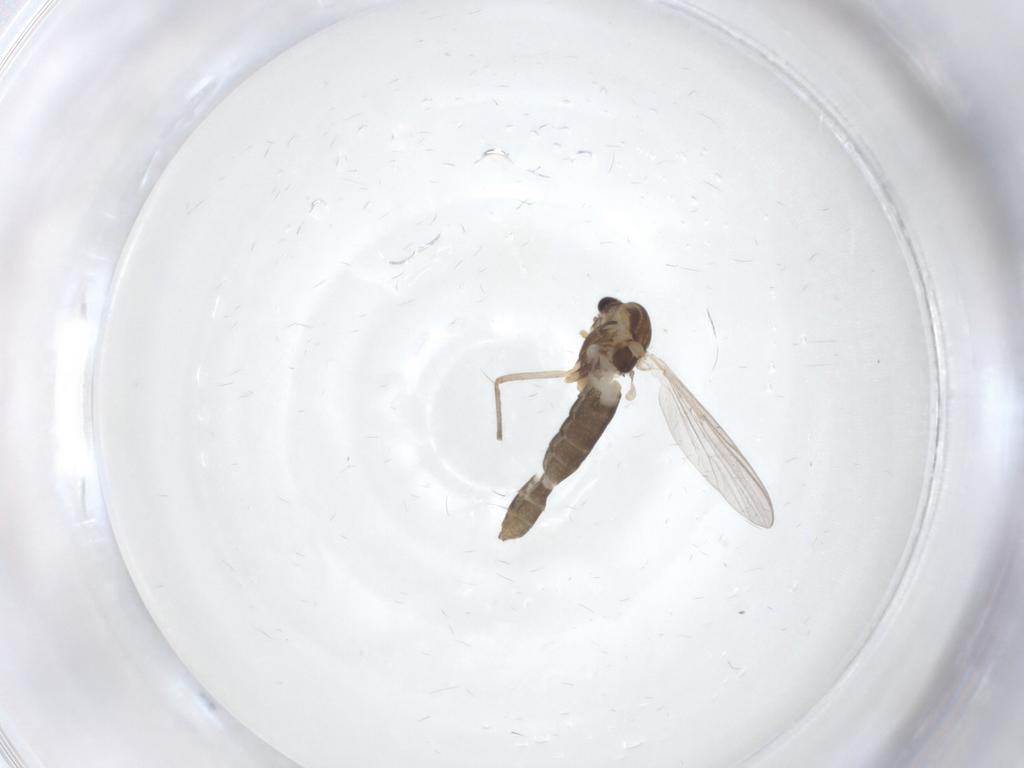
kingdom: Animalia
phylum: Arthropoda
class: Insecta
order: Diptera
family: Chironomidae
